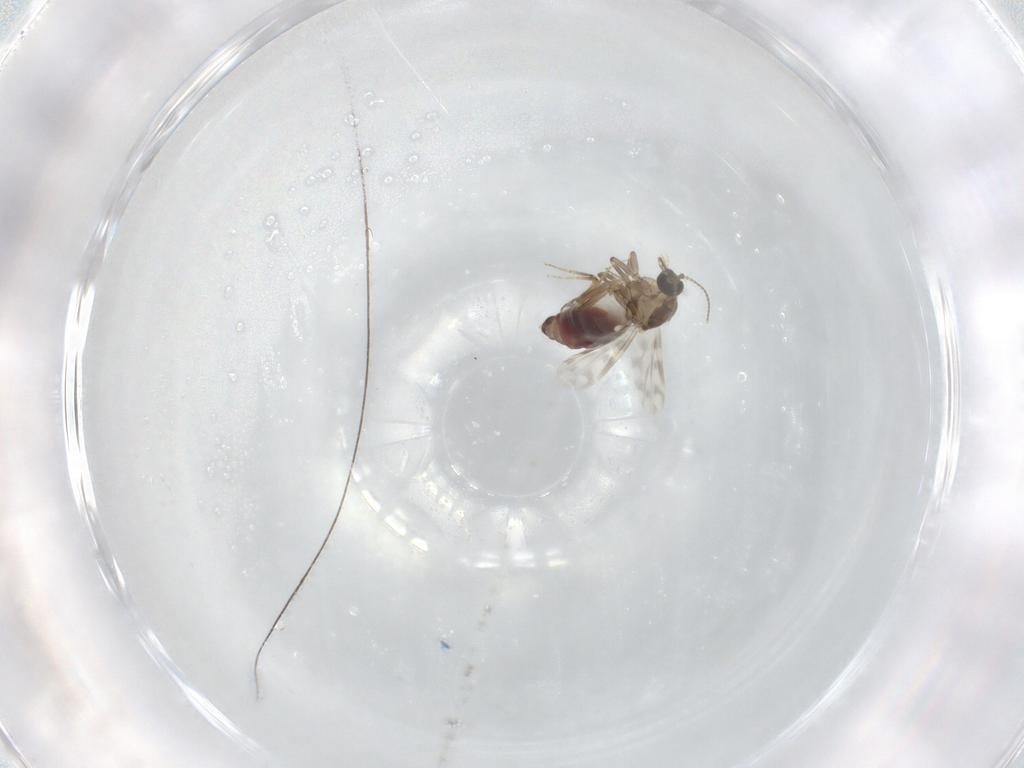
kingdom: Animalia
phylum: Arthropoda
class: Insecta
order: Diptera
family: Ceratopogonidae
